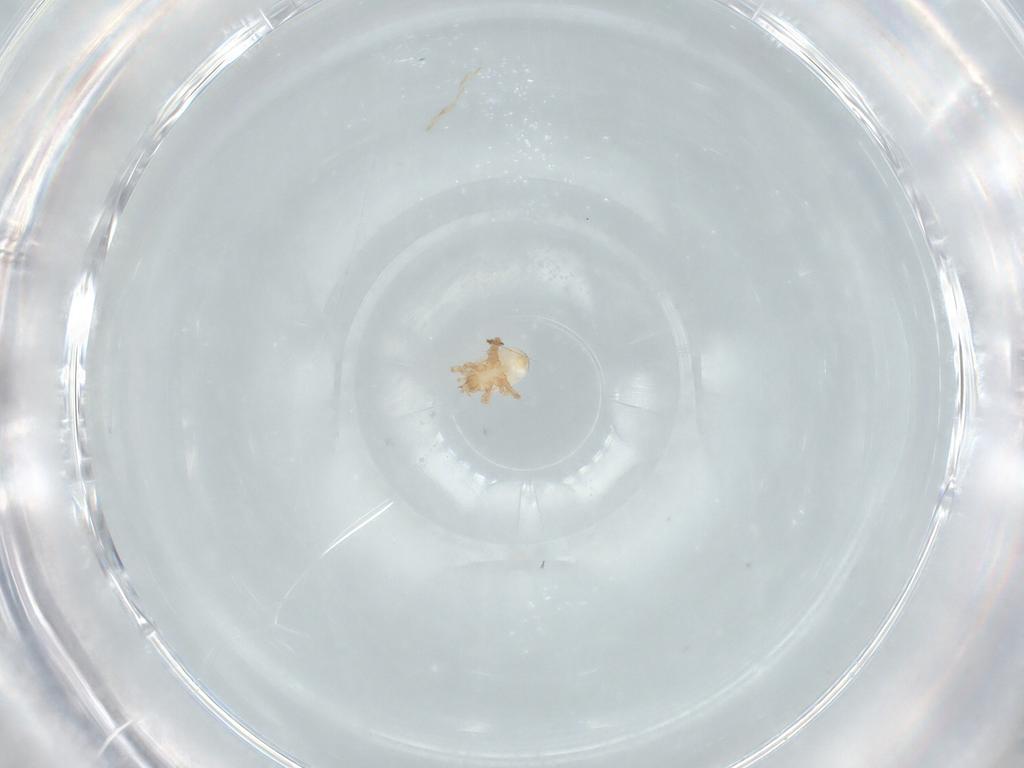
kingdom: Animalia
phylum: Arthropoda
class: Arachnida
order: Mesostigmata
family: Ascidae
